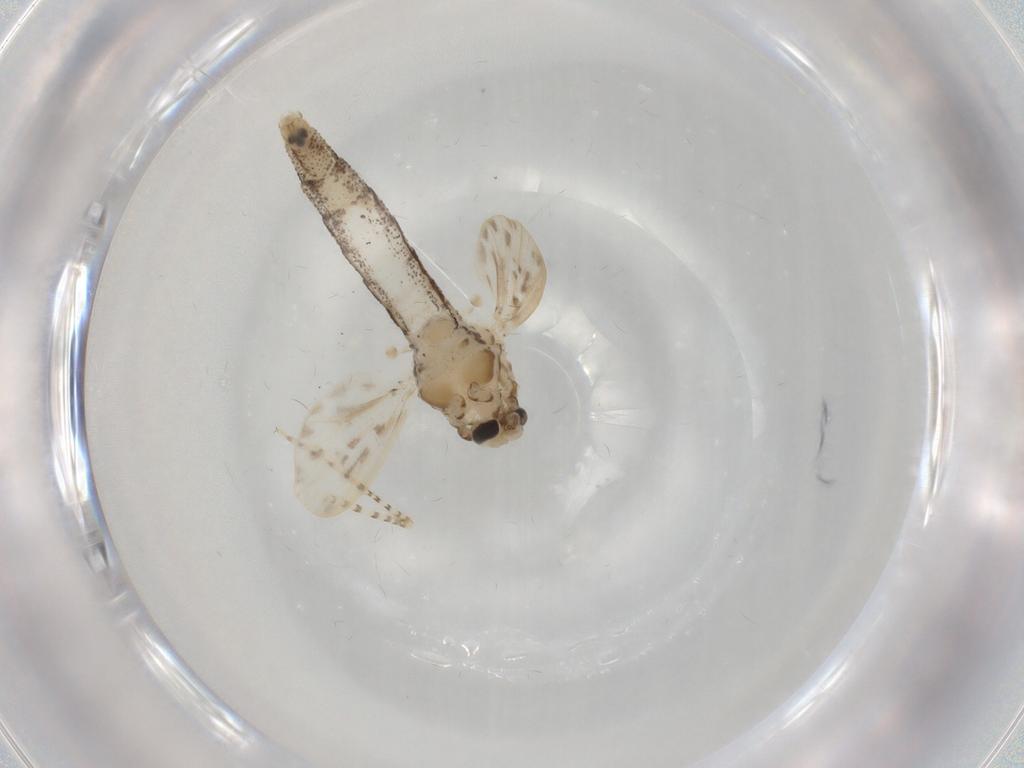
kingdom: Animalia
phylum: Arthropoda
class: Insecta
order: Diptera
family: Chaoboridae
